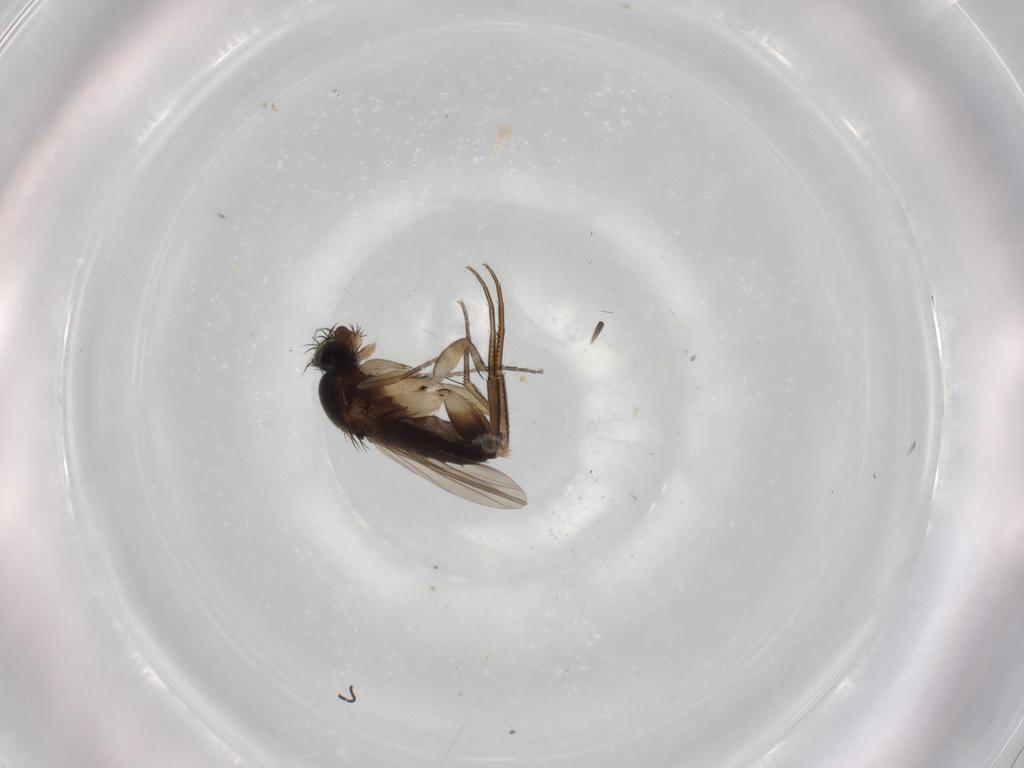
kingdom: Animalia
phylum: Arthropoda
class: Insecta
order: Diptera
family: Phoridae
